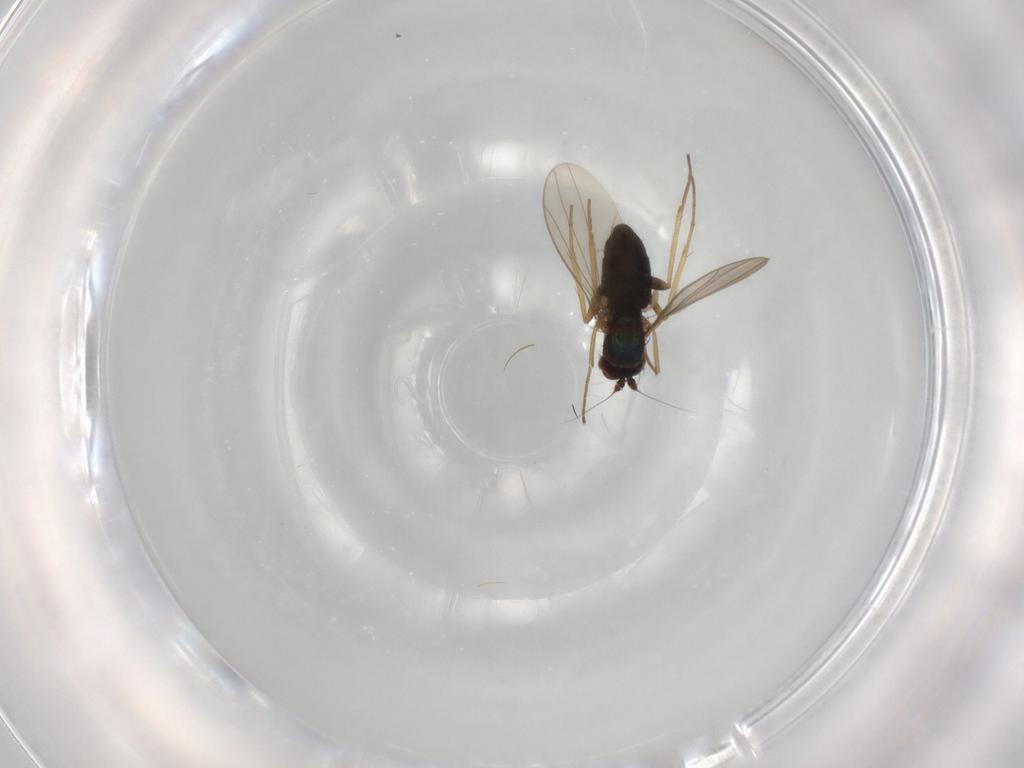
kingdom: Animalia
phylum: Arthropoda
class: Insecta
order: Diptera
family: Dolichopodidae
